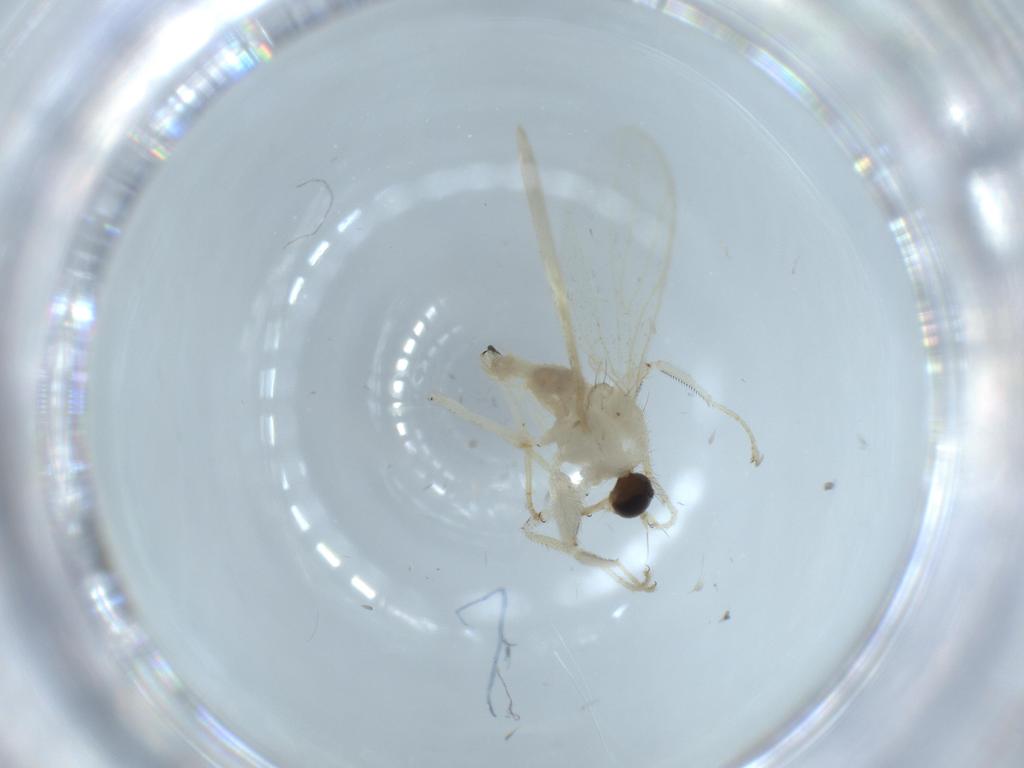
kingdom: Animalia
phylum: Arthropoda
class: Insecta
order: Diptera
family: Hybotidae
